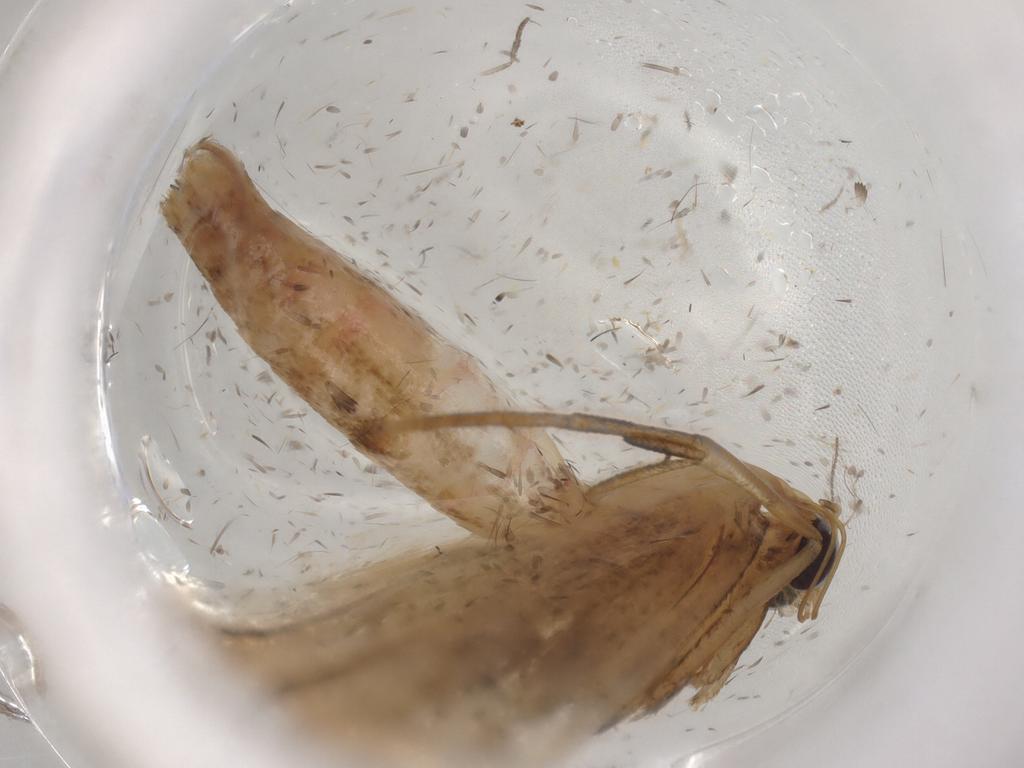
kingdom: Animalia
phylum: Arthropoda
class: Insecta
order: Lepidoptera
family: Noctuidae
